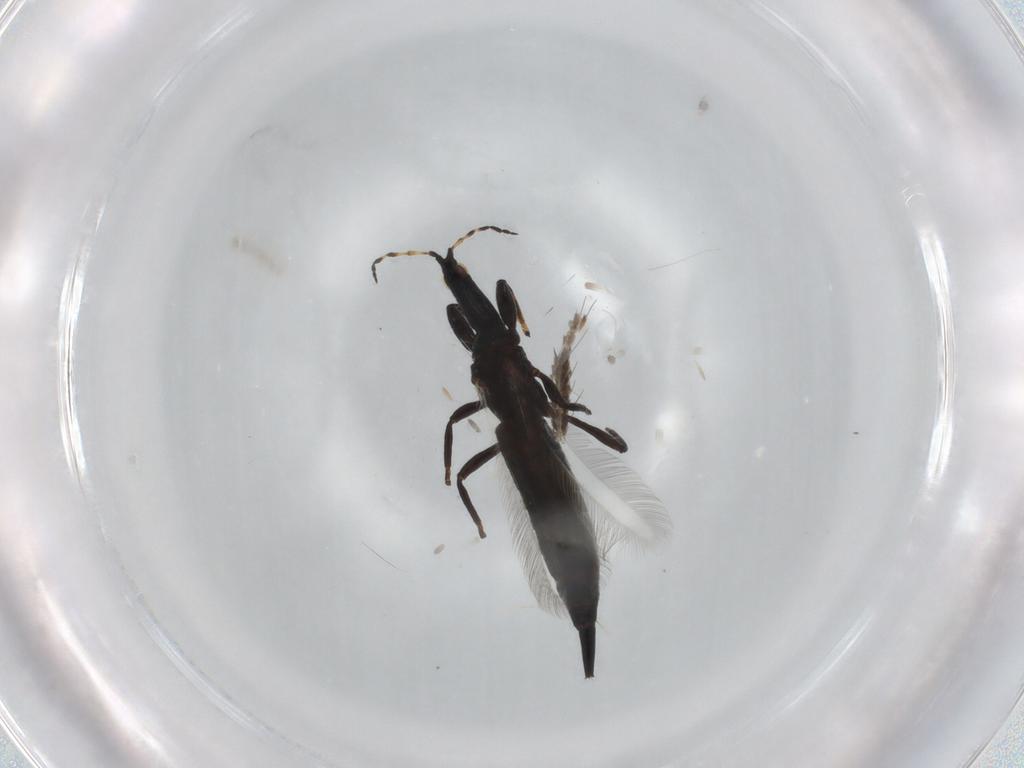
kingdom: Animalia
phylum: Arthropoda
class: Insecta
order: Thysanoptera
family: Phlaeothripidae
